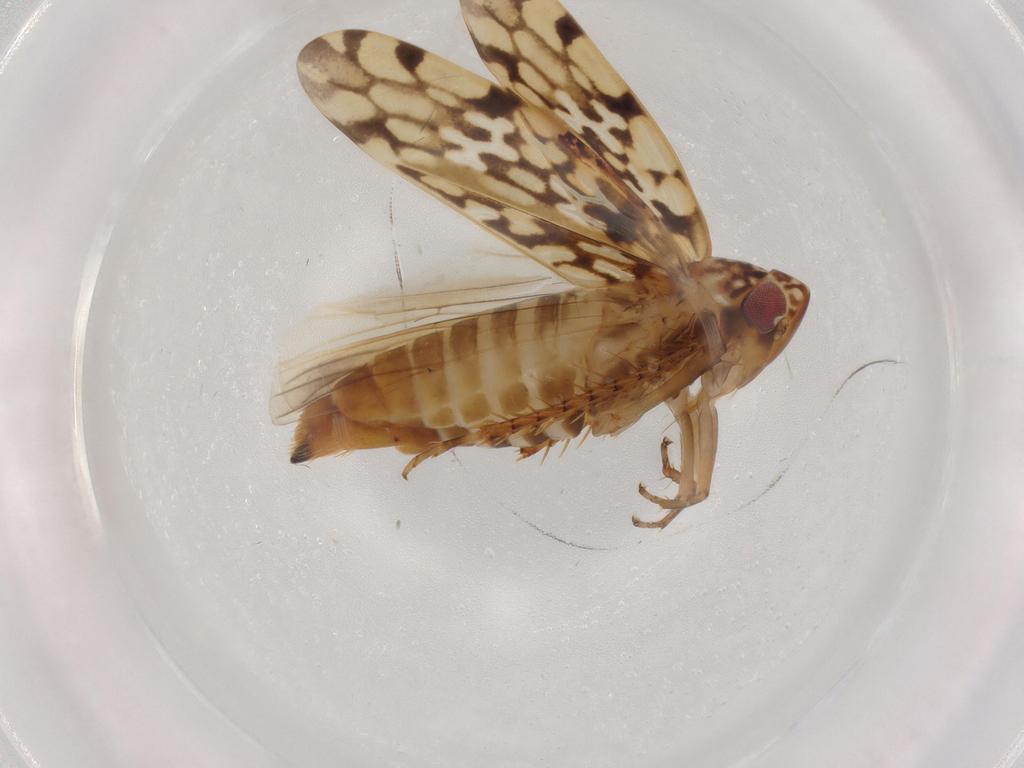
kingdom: Animalia
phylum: Arthropoda
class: Insecta
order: Hemiptera
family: Cicadellidae
